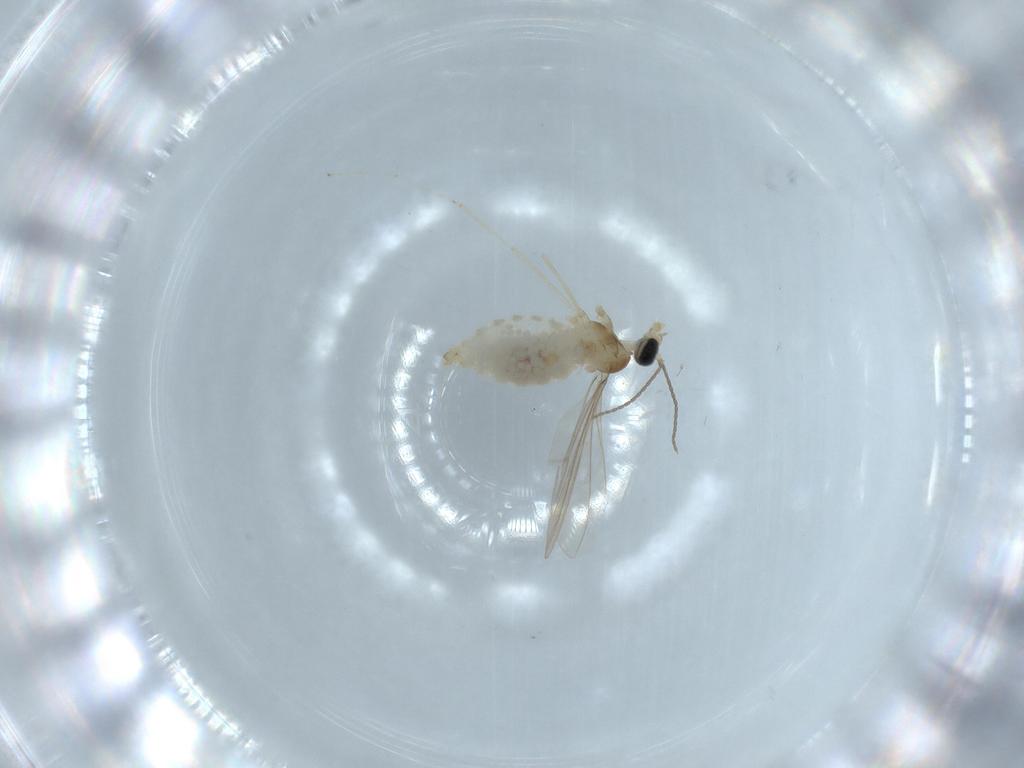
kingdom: Animalia
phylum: Arthropoda
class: Insecta
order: Diptera
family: Cecidomyiidae
